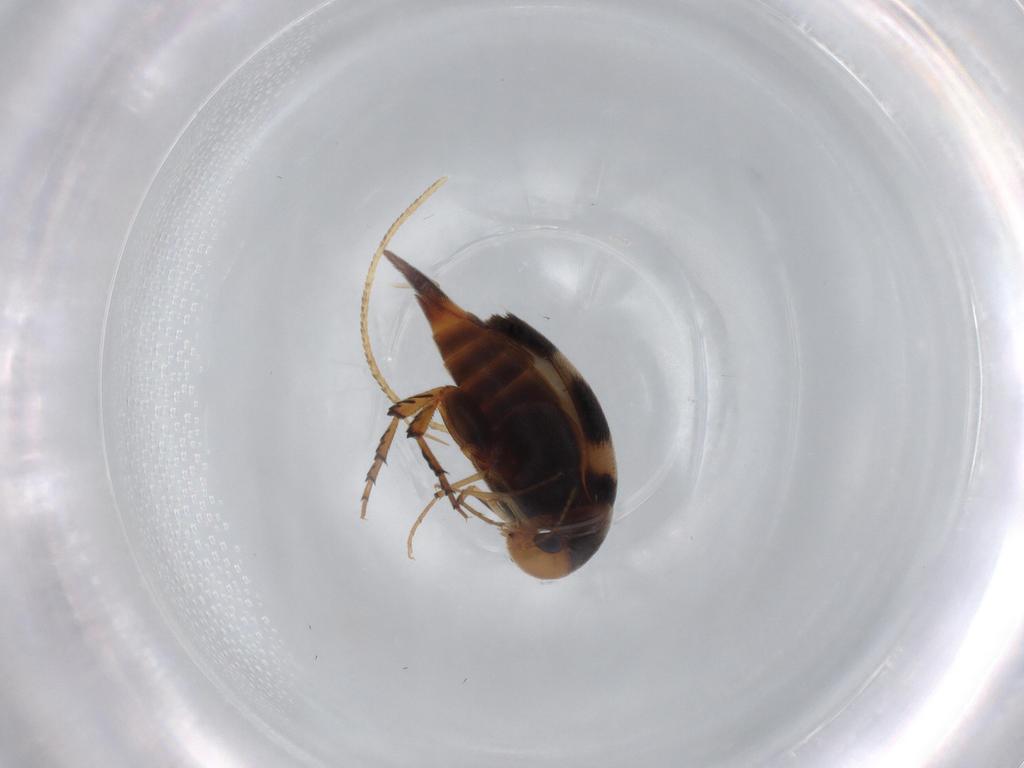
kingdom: Animalia
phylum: Arthropoda
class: Insecta
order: Coleoptera
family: Mordellidae
